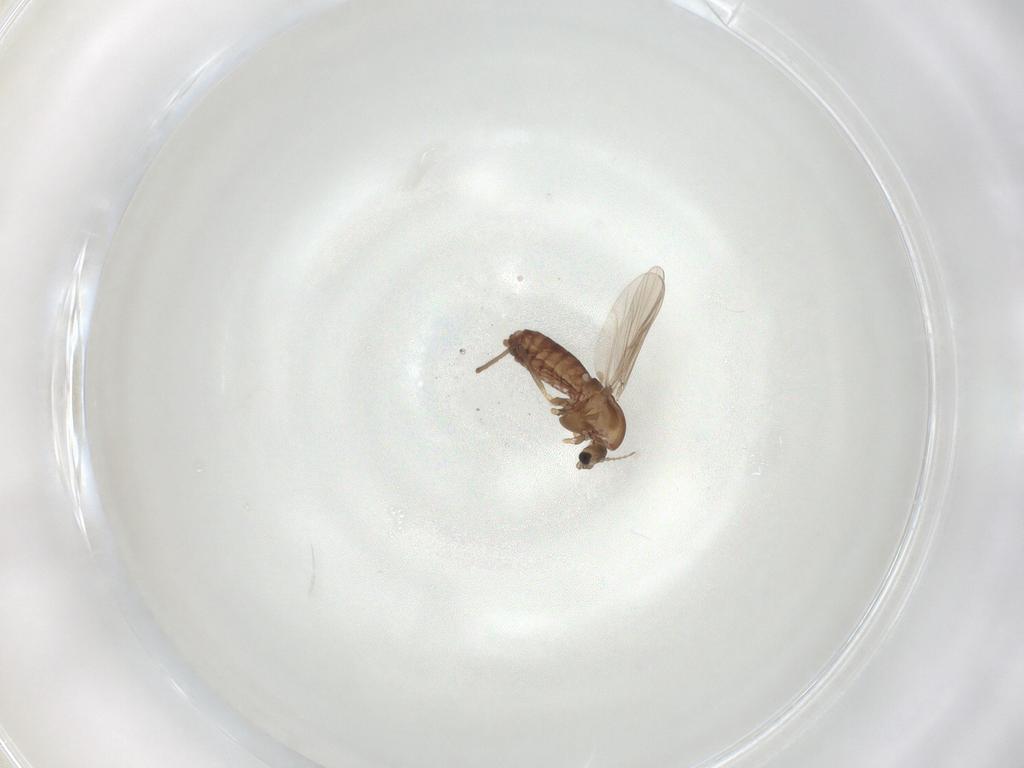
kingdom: Animalia
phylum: Arthropoda
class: Insecta
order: Diptera
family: Chironomidae
